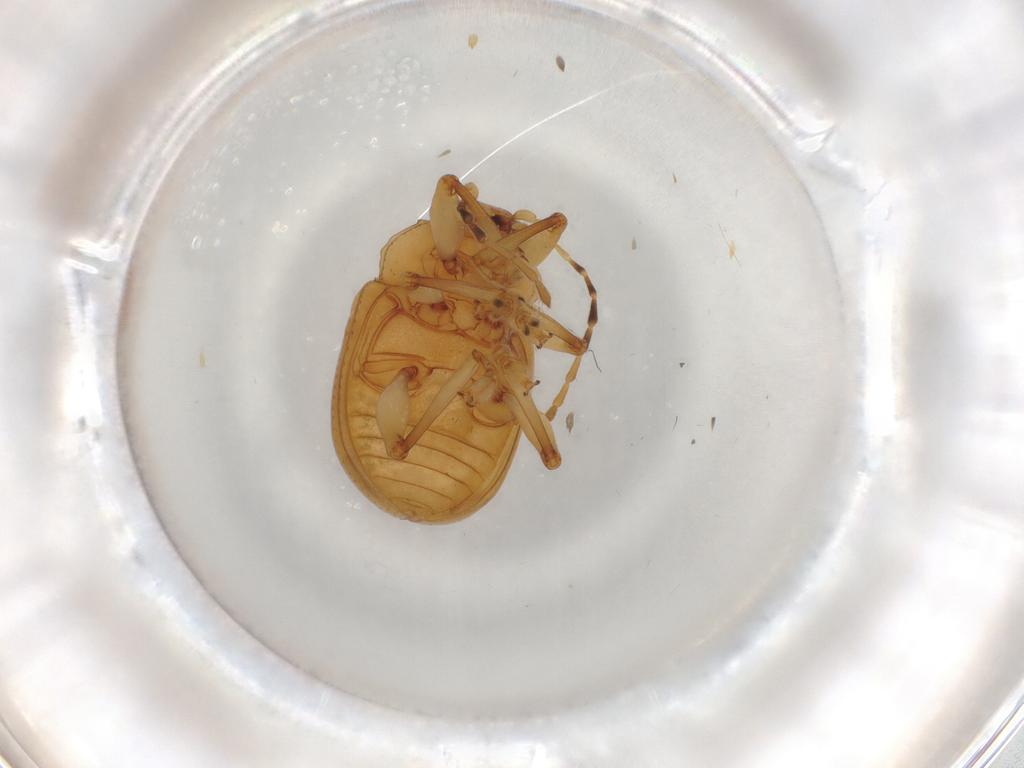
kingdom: Animalia
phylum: Arthropoda
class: Insecta
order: Coleoptera
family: Chrysomelidae
